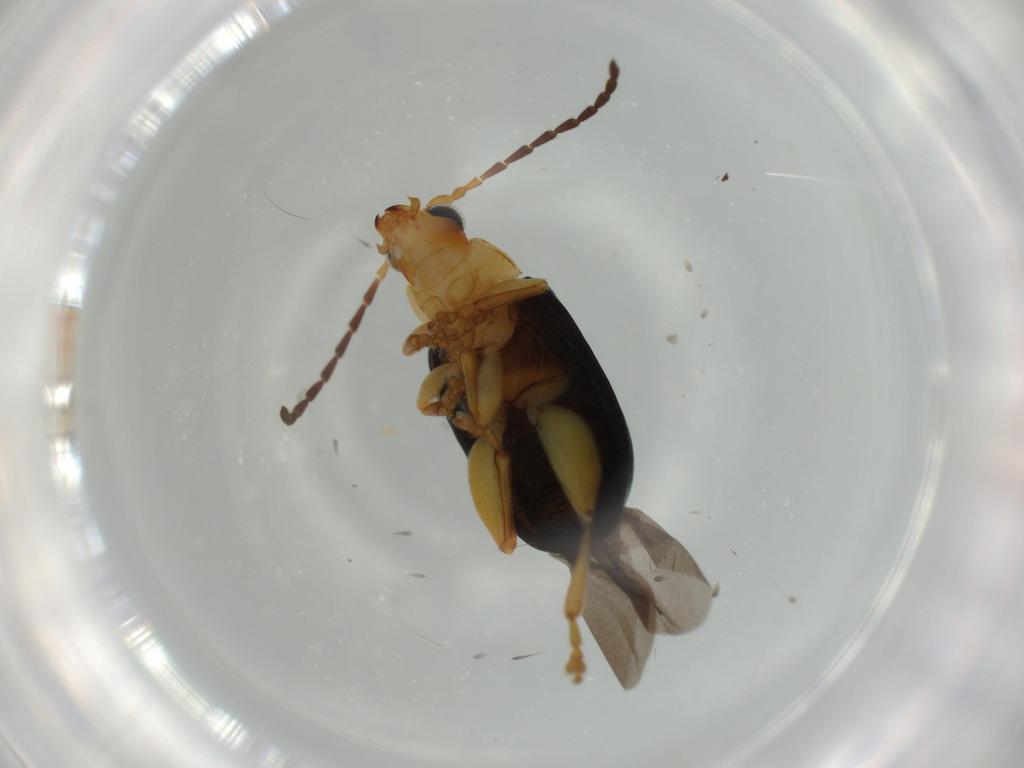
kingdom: Animalia
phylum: Arthropoda
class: Insecta
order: Coleoptera
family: Chrysomelidae
